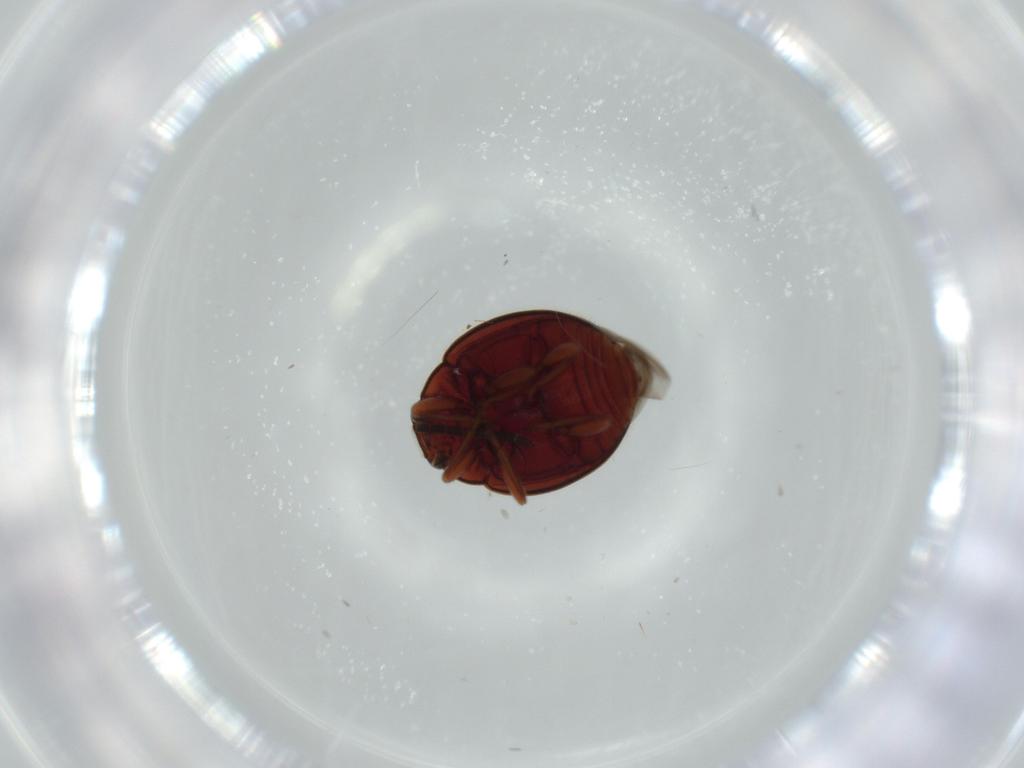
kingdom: Animalia
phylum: Arthropoda
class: Insecta
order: Coleoptera
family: Coccinellidae
